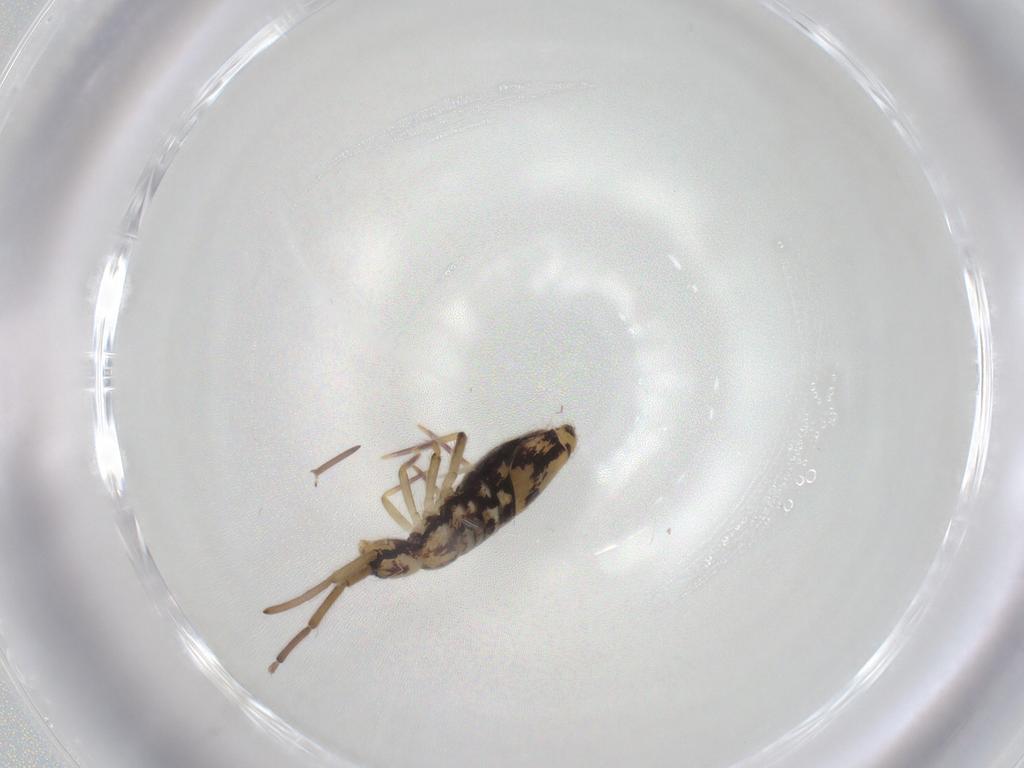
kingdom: Animalia
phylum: Arthropoda
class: Collembola
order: Entomobryomorpha
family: Entomobryidae
